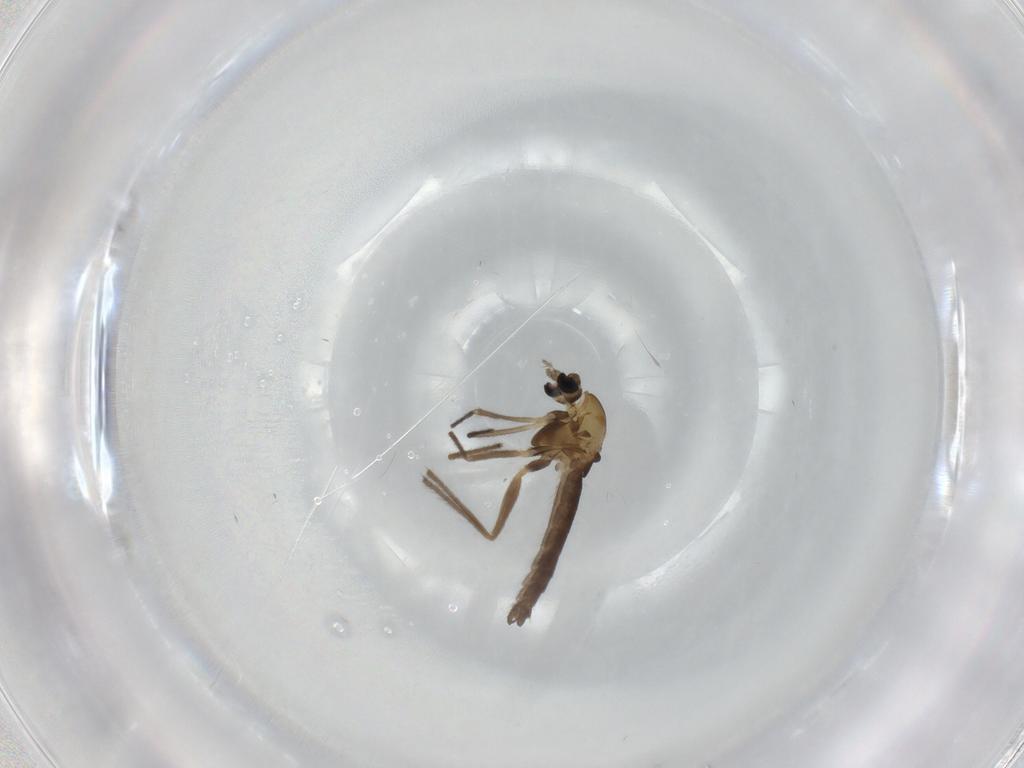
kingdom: Animalia
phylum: Arthropoda
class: Insecta
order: Diptera
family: Chironomidae
